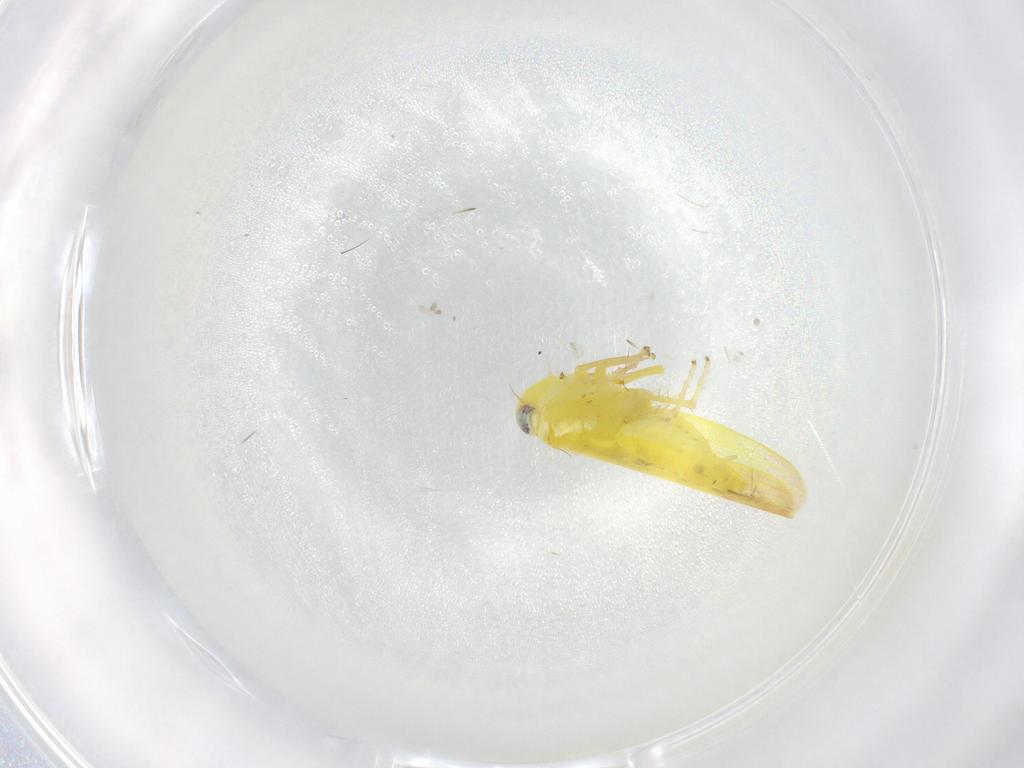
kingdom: Animalia
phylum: Arthropoda
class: Insecta
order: Hemiptera
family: Cicadellidae
